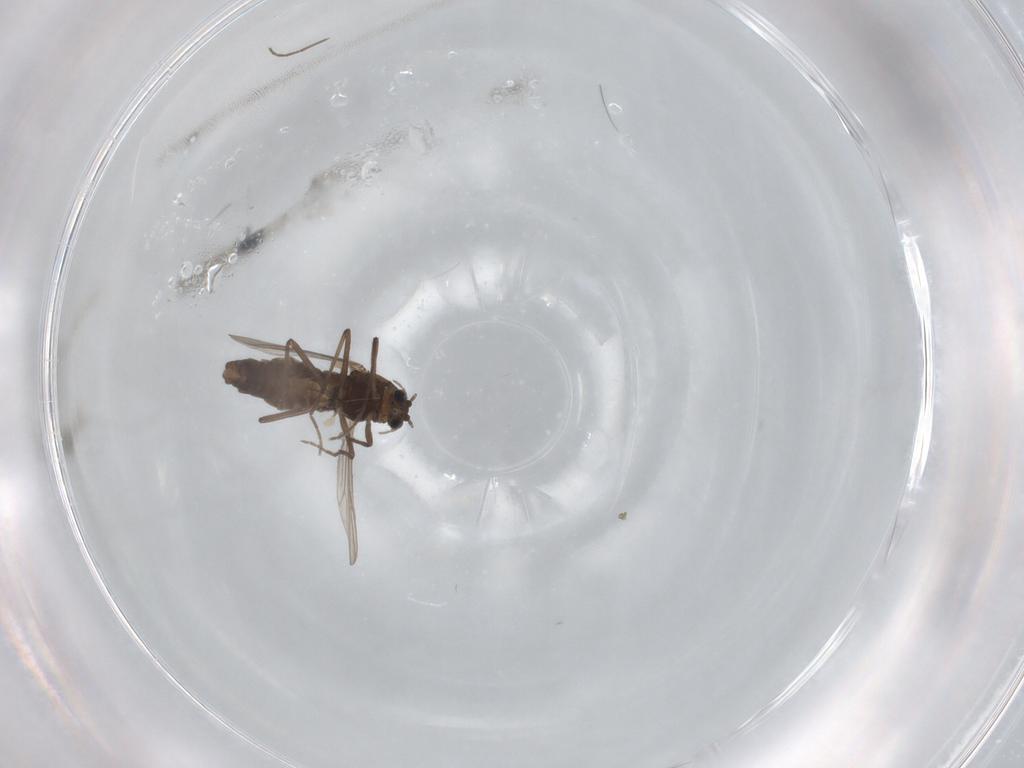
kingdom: Animalia
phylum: Arthropoda
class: Insecta
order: Diptera
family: Chironomidae
